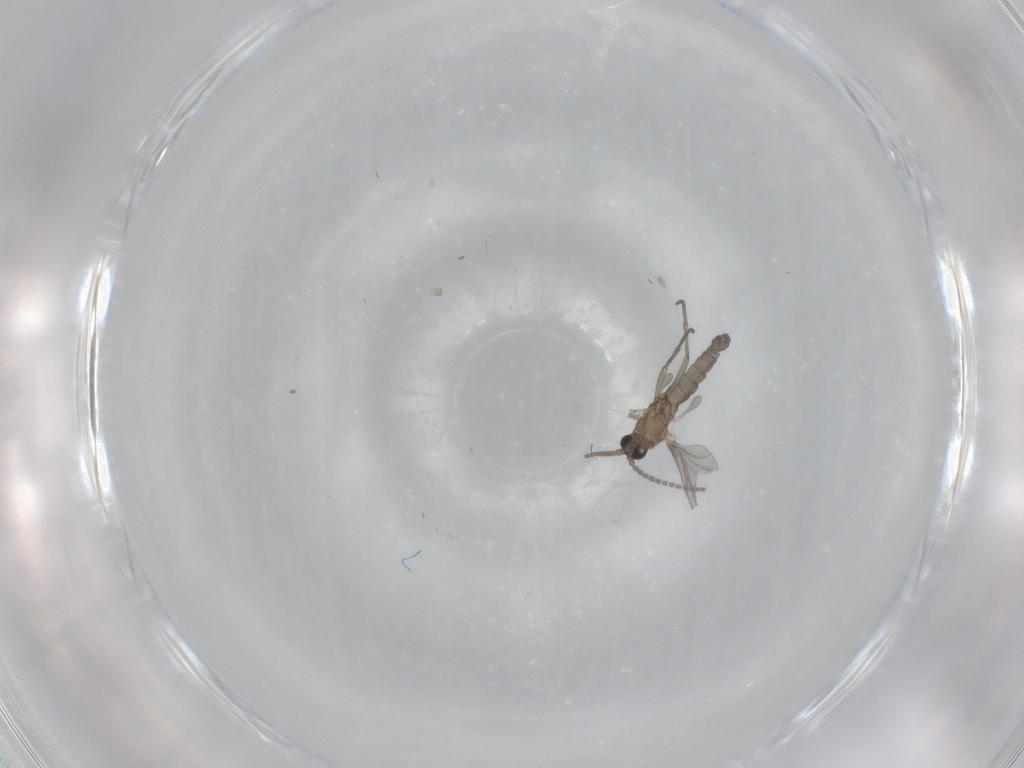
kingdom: Animalia
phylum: Arthropoda
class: Insecta
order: Diptera
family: Sciaridae
